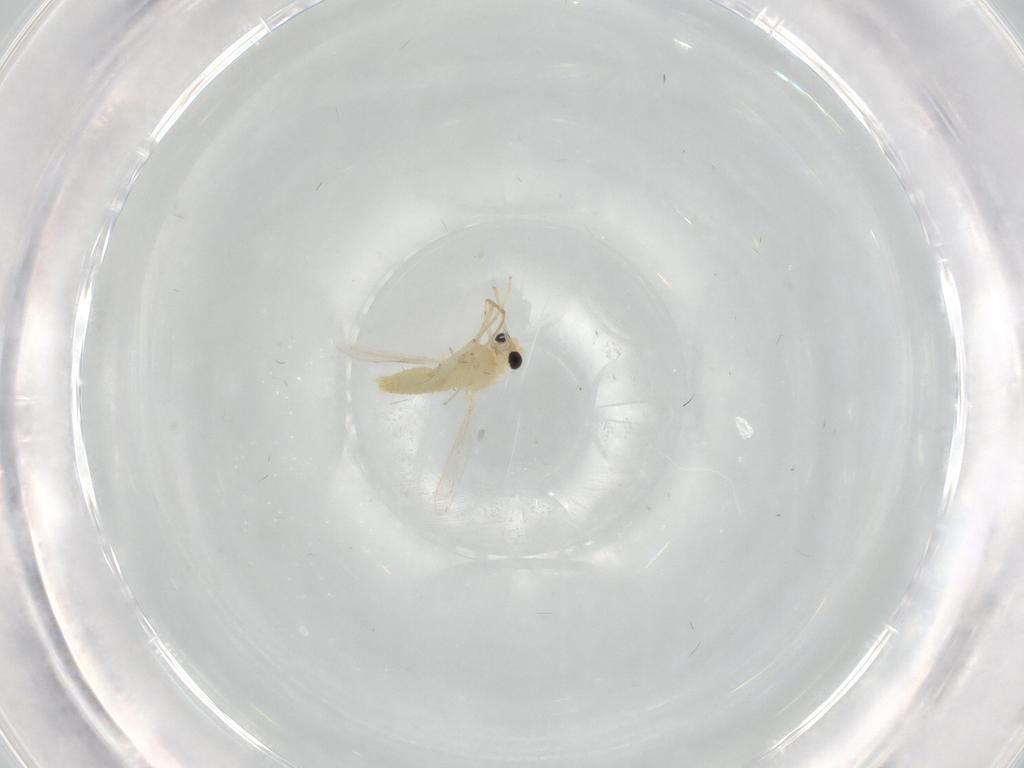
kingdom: Animalia
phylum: Arthropoda
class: Insecta
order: Diptera
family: Chironomidae
